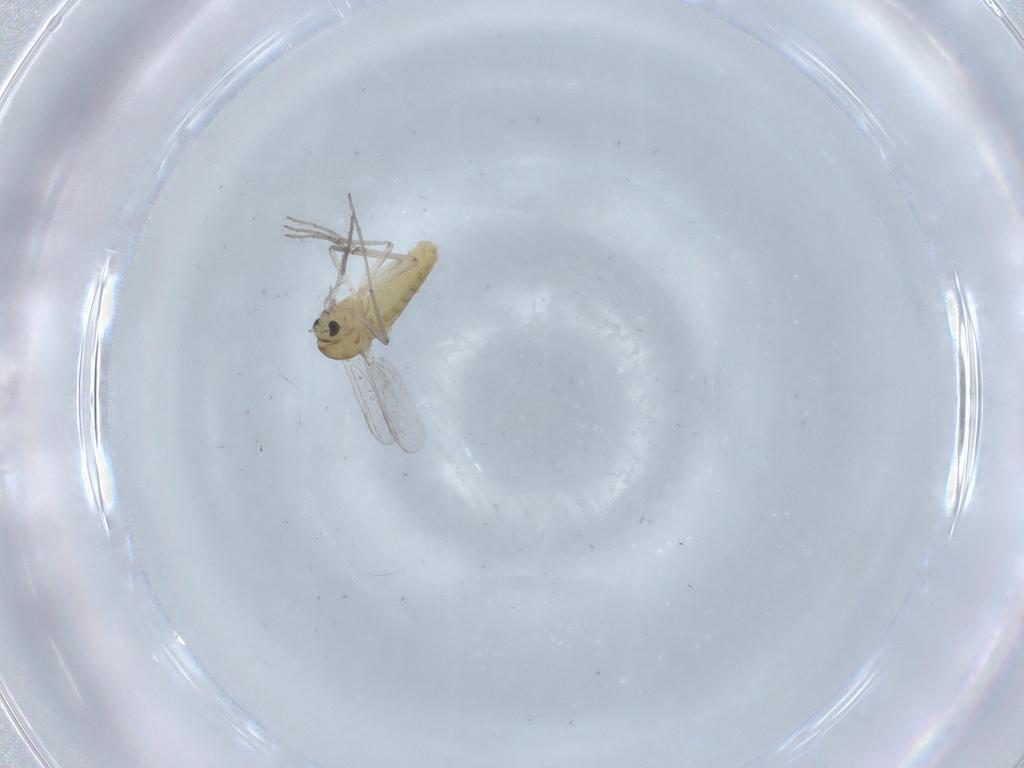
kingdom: Animalia
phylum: Arthropoda
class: Insecta
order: Diptera
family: Chironomidae
